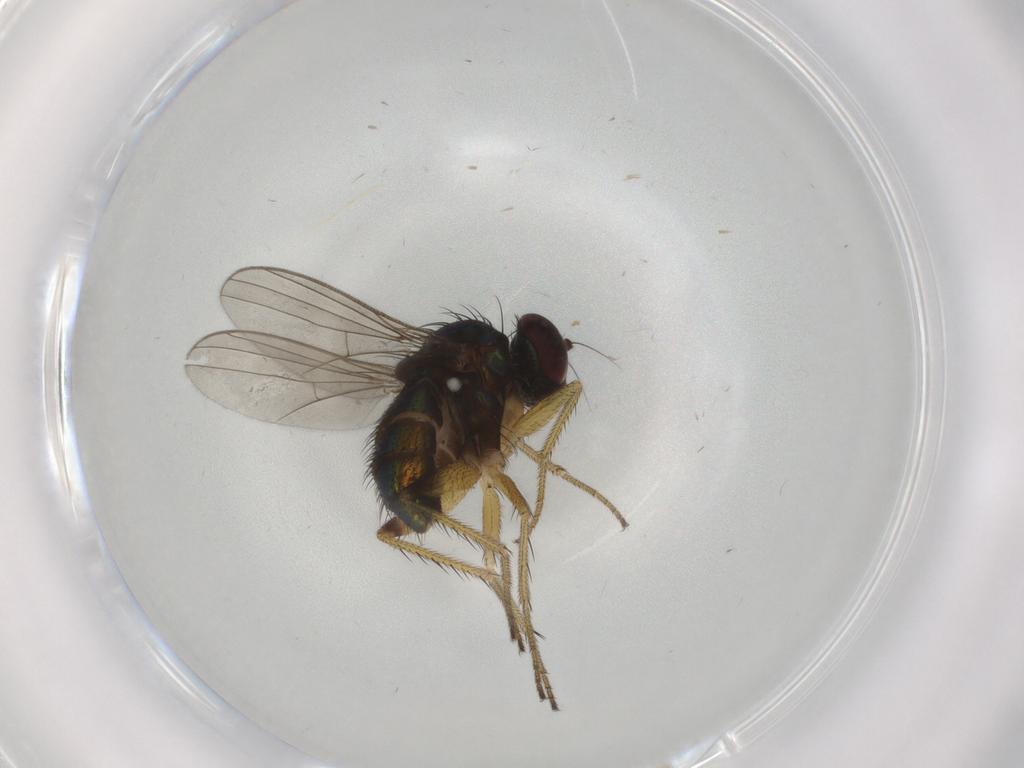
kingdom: Animalia
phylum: Arthropoda
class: Insecta
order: Diptera
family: Dolichopodidae
